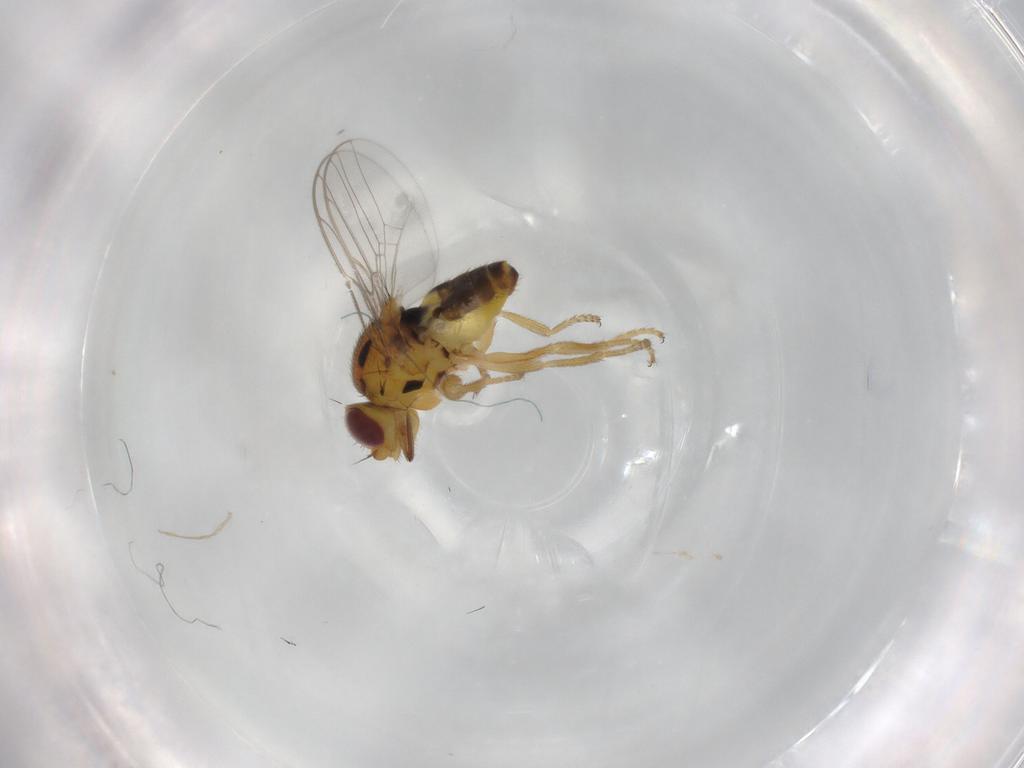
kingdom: Animalia
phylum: Arthropoda
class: Insecta
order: Diptera
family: Chloropidae
